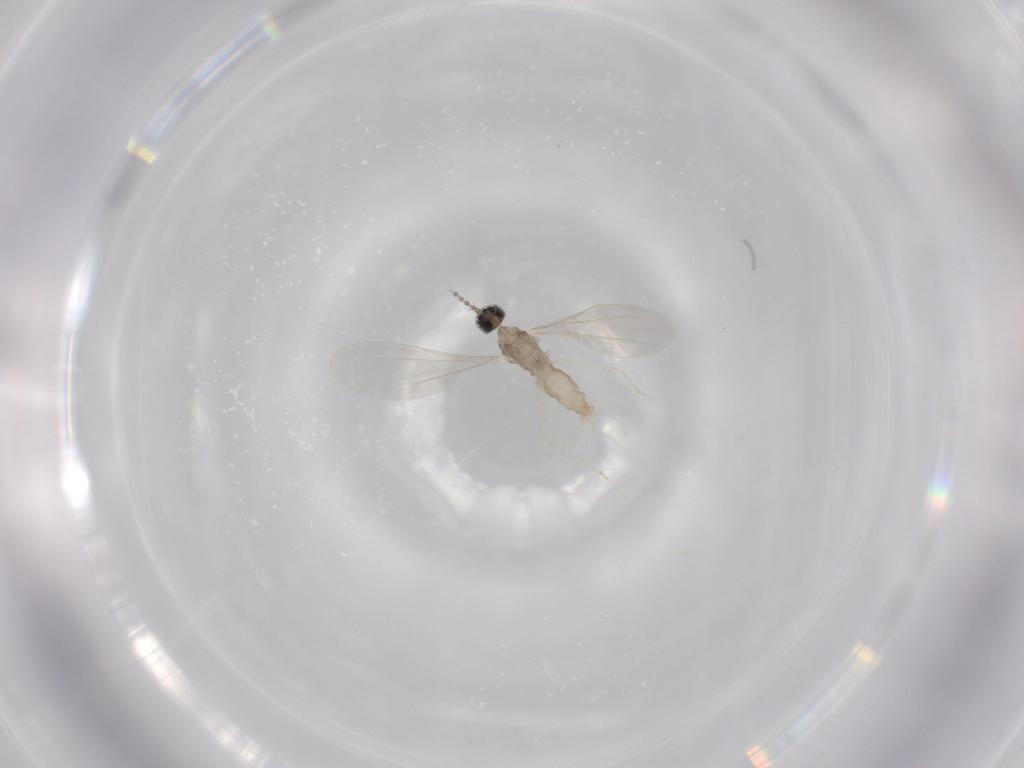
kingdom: Animalia
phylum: Arthropoda
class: Insecta
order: Diptera
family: Cecidomyiidae
